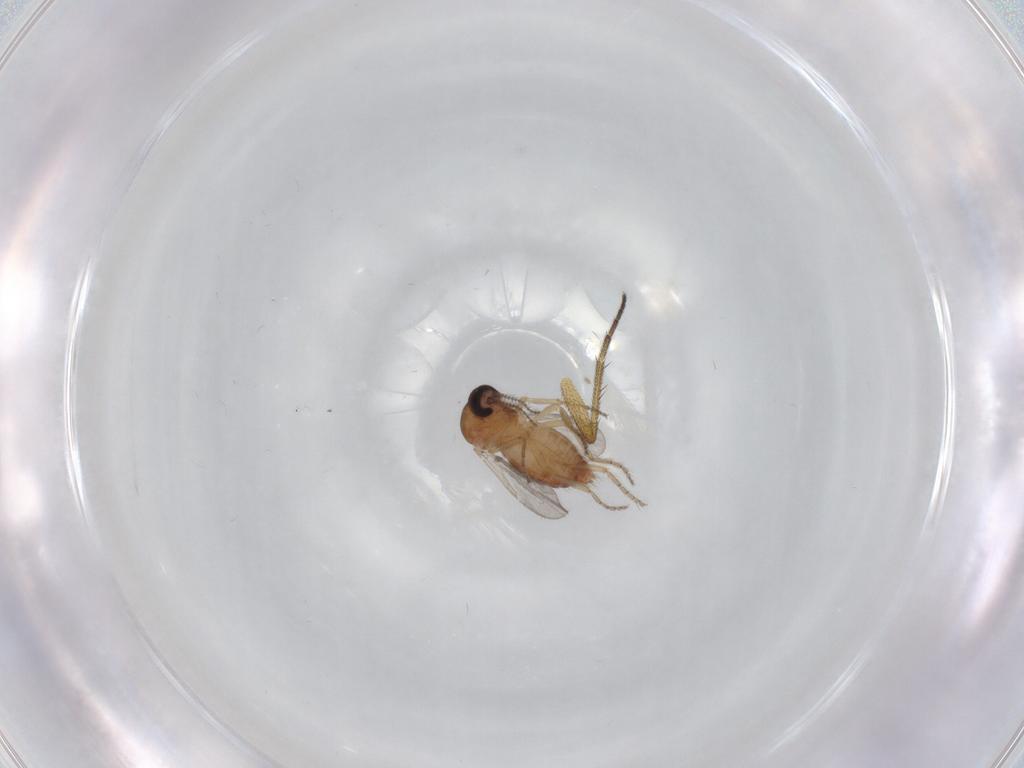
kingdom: Animalia
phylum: Arthropoda
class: Insecta
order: Diptera
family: Ceratopogonidae
